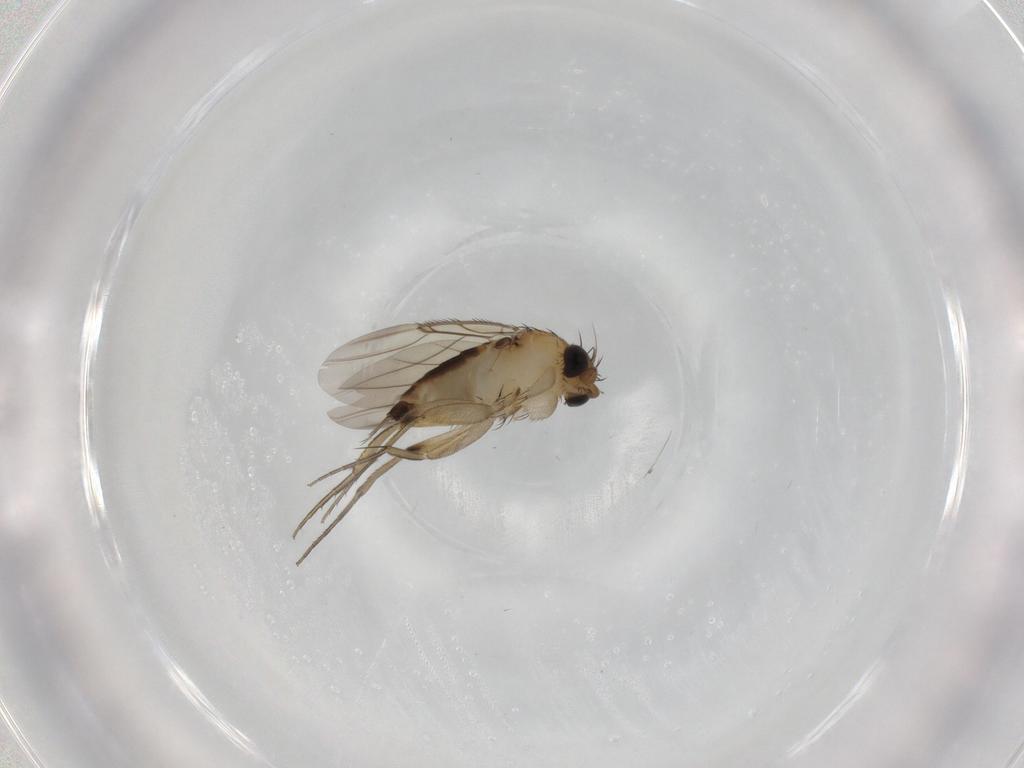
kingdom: Animalia
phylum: Arthropoda
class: Insecta
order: Diptera
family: Phoridae
